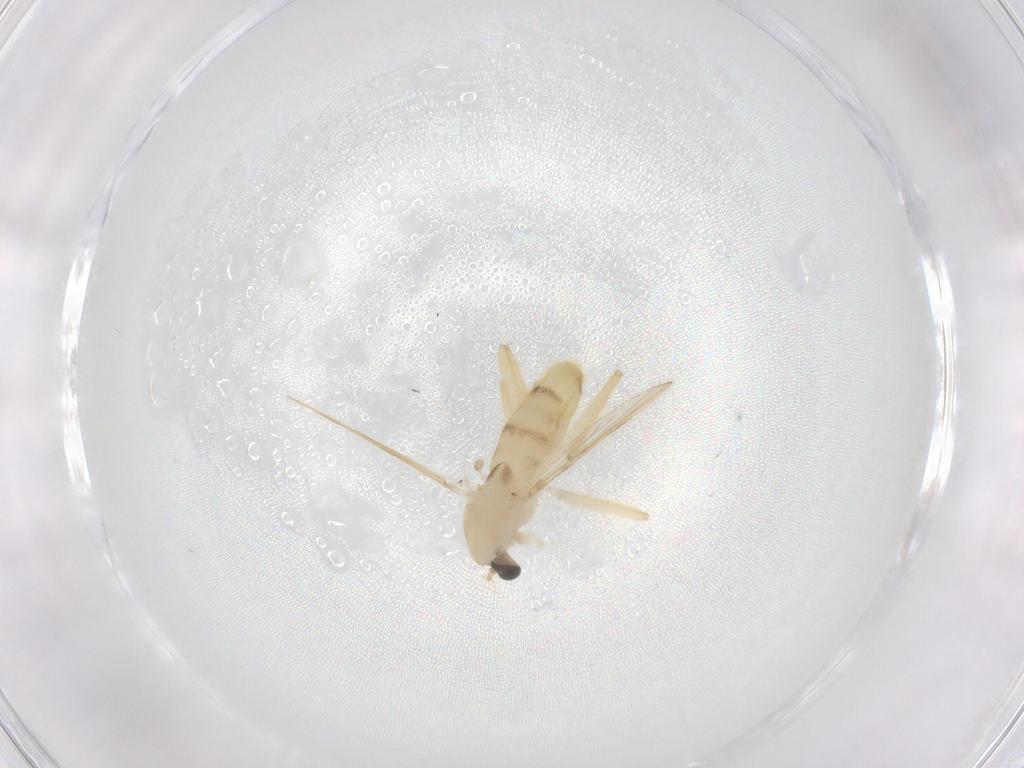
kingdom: Animalia
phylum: Arthropoda
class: Insecta
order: Diptera
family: Chironomidae
